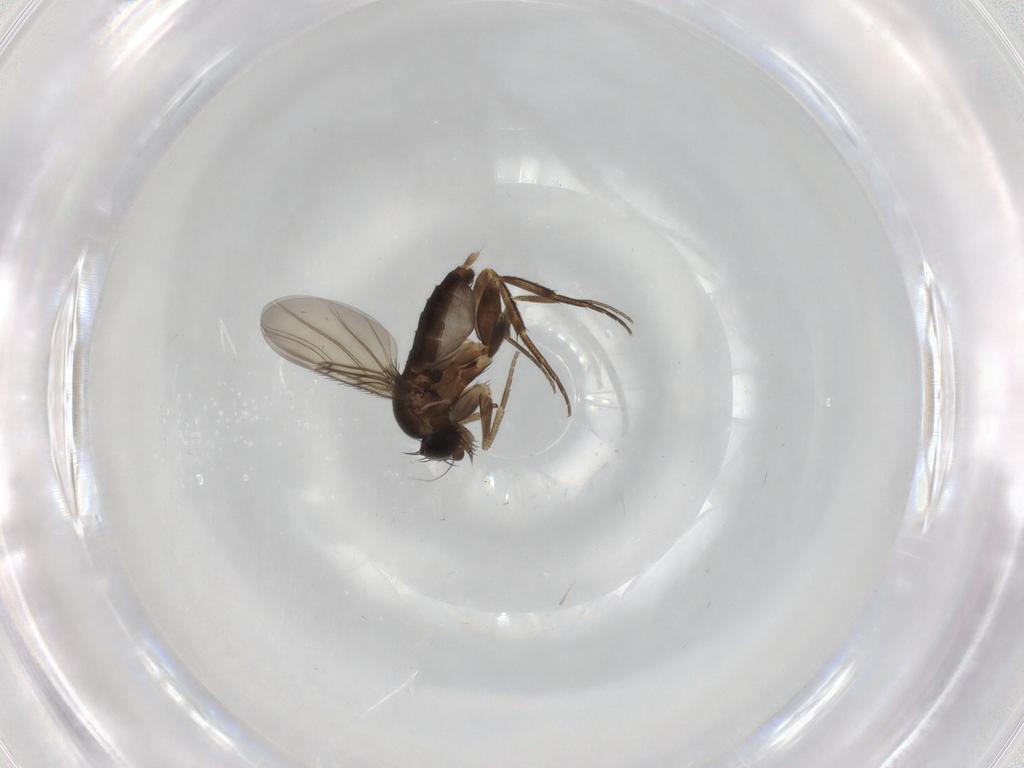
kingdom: Animalia
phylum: Arthropoda
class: Insecta
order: Diptera
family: Phoridae
